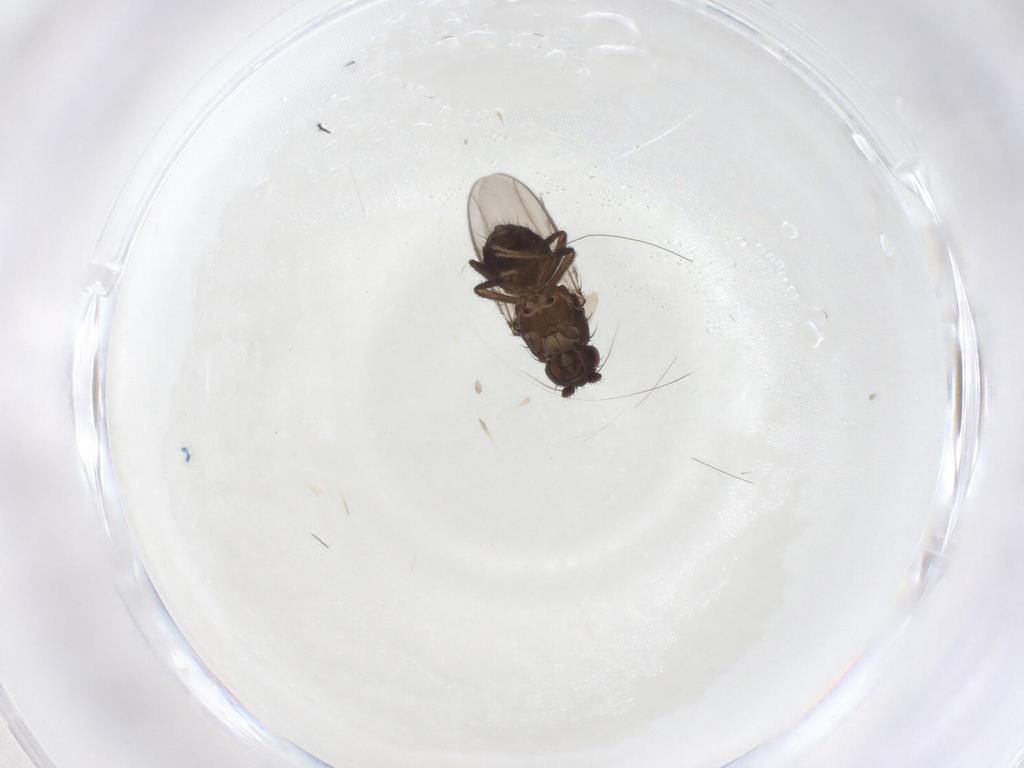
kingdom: Animalia
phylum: Arthropoda
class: Insecta
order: Diptera
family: Sphaeroceridae
